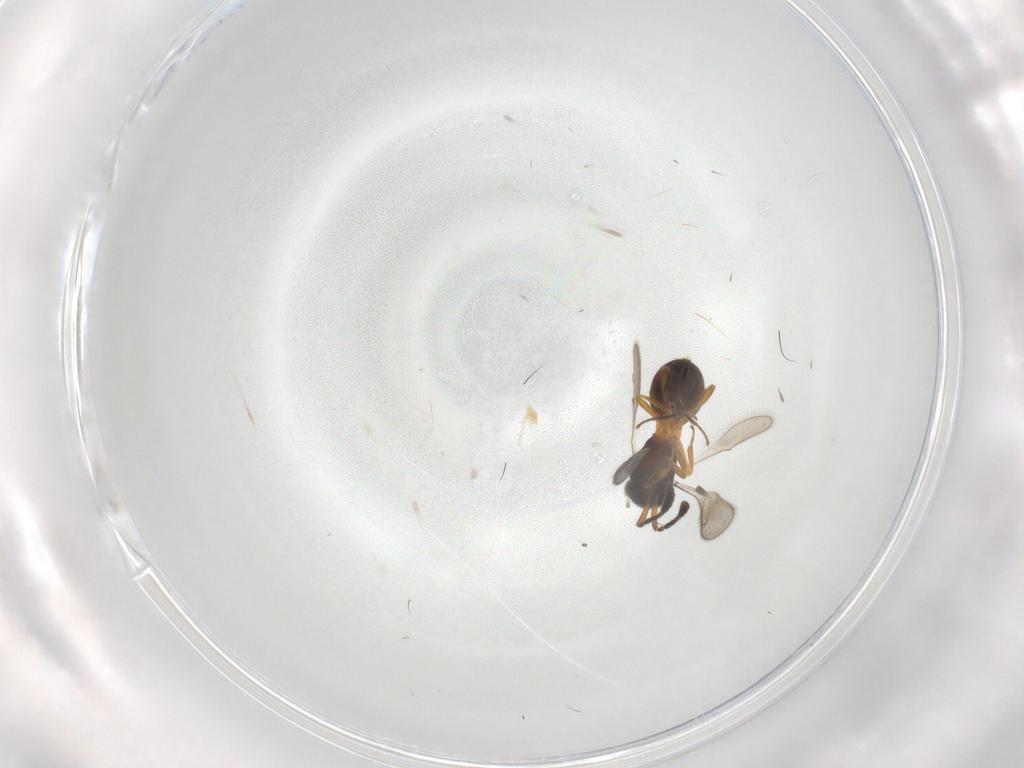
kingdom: Animalia
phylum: Arthropoda
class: Insecta
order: Hymenoptera
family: Scelionidae
